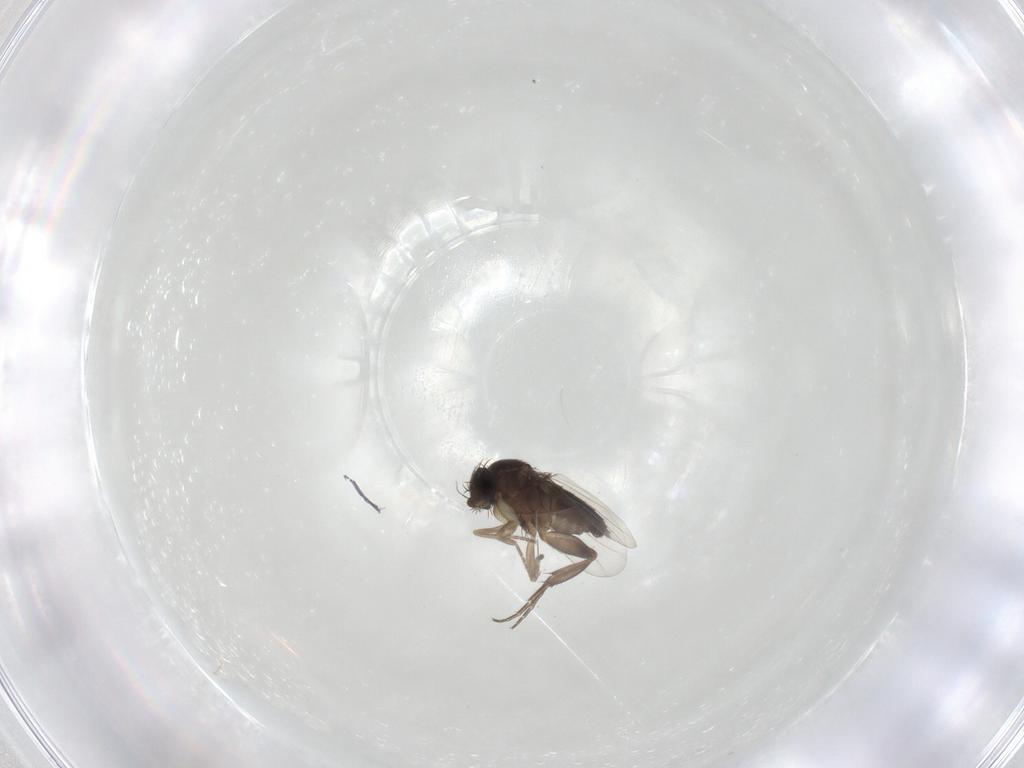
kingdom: Animalia
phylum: Arthropoda
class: Insecta
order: Diptera
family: Phoridae
